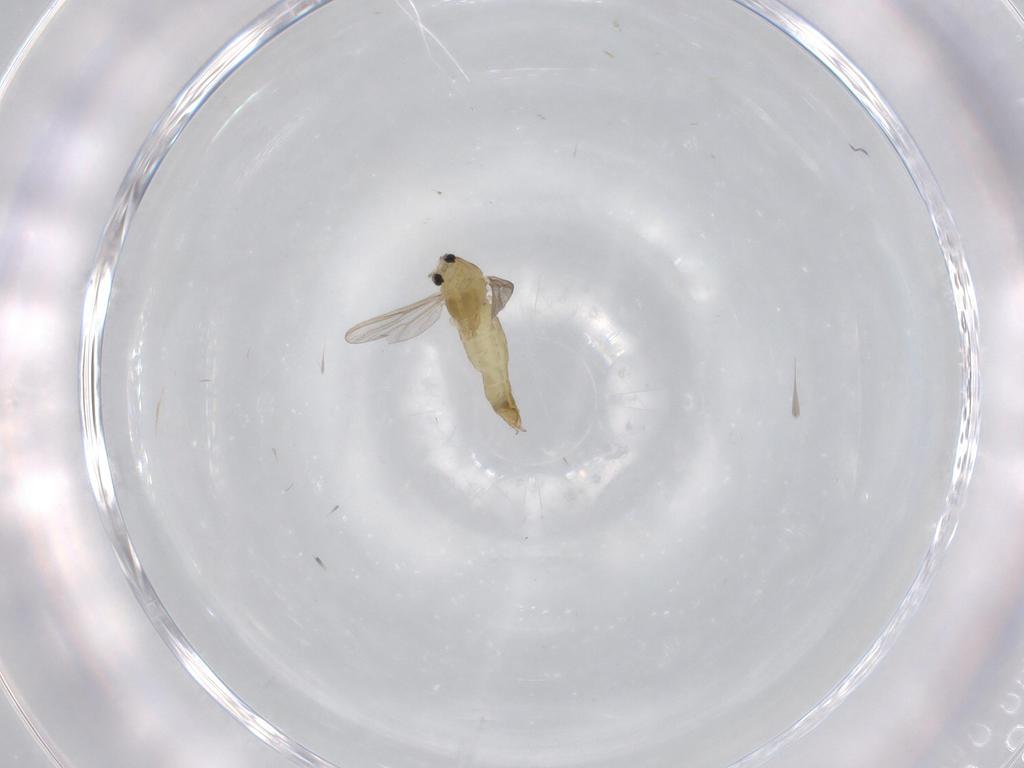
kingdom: Animalia
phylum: Arthropoda
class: Insecta
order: Diptera
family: Chironomidae
